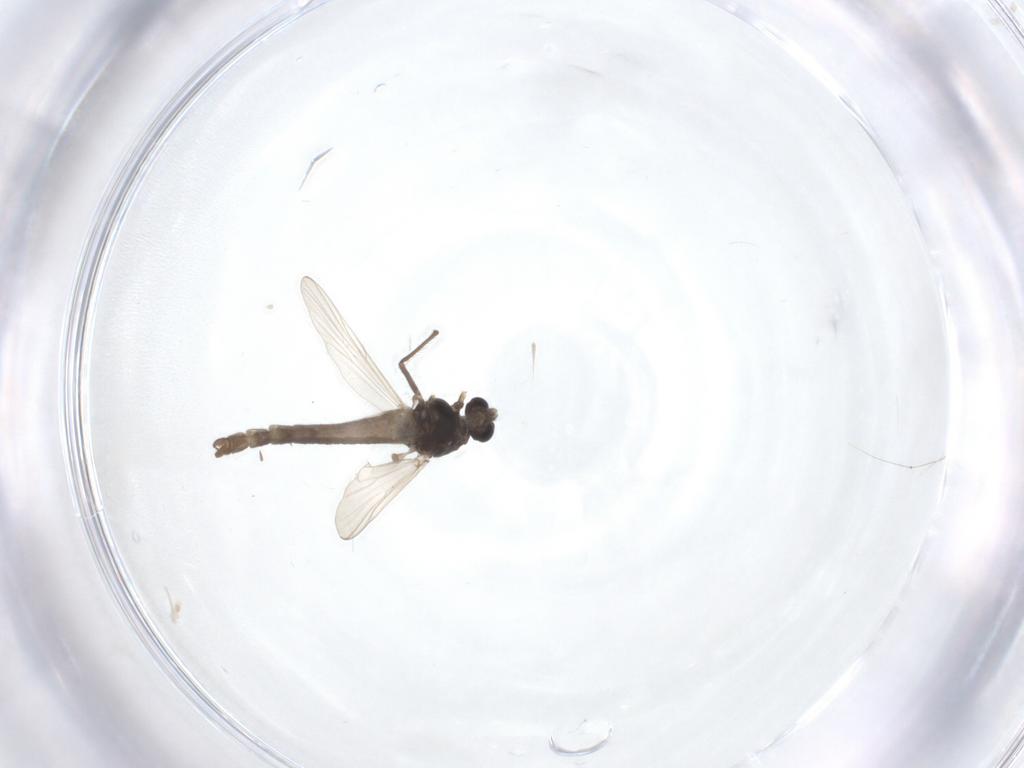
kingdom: Animalia
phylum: Arthropoda
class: Insecta
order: Diptera
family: Chironomidae
